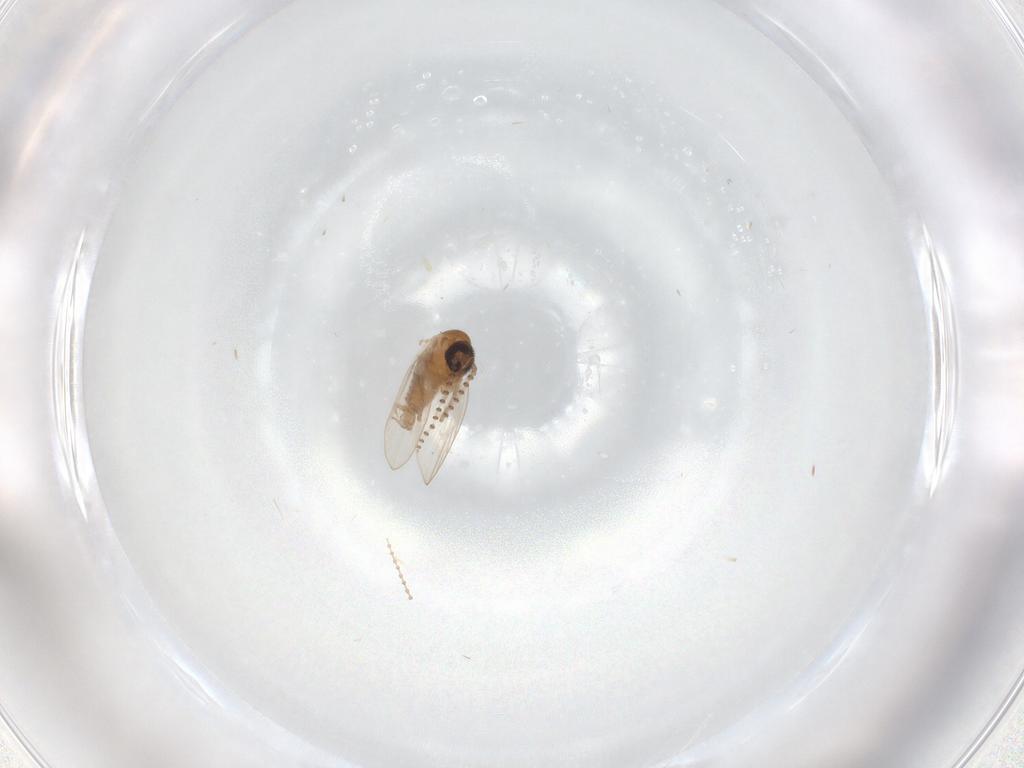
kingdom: Animalia
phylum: Arthropoda
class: Insecta
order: Diptera
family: Psychodidae
